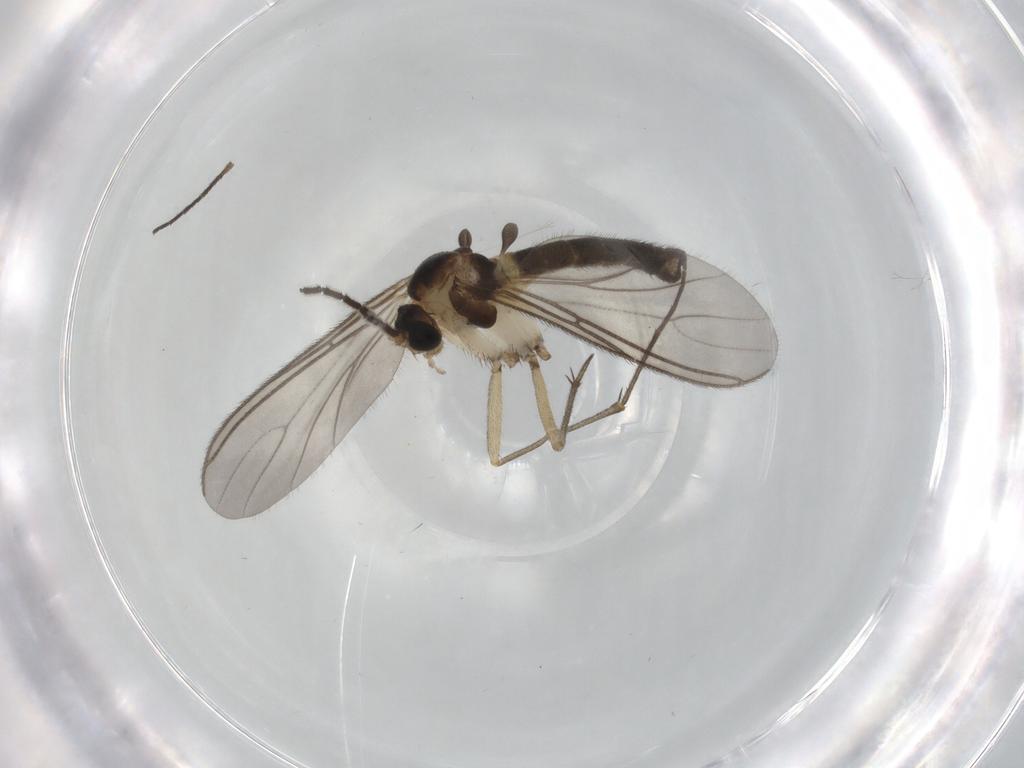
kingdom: Animalia
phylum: Arthropoda
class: Insecta
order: Diptera
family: Sciaridae
